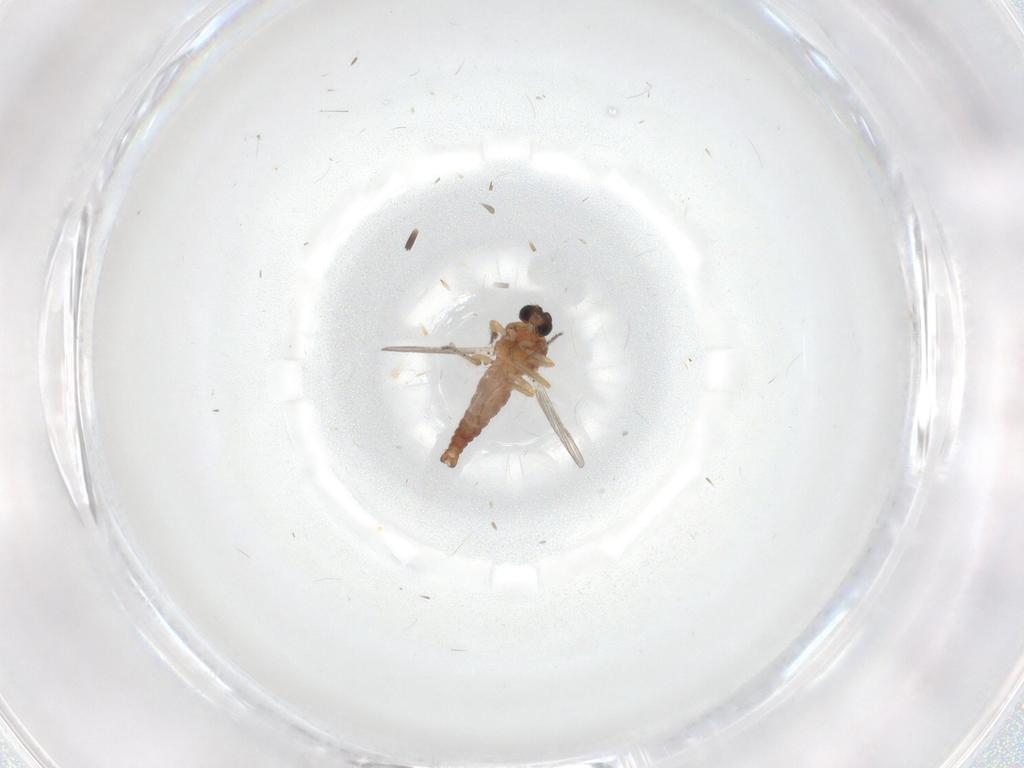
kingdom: Animalia
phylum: Arthropoda
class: Insecta
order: Diptera
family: Ceratopogonidae
